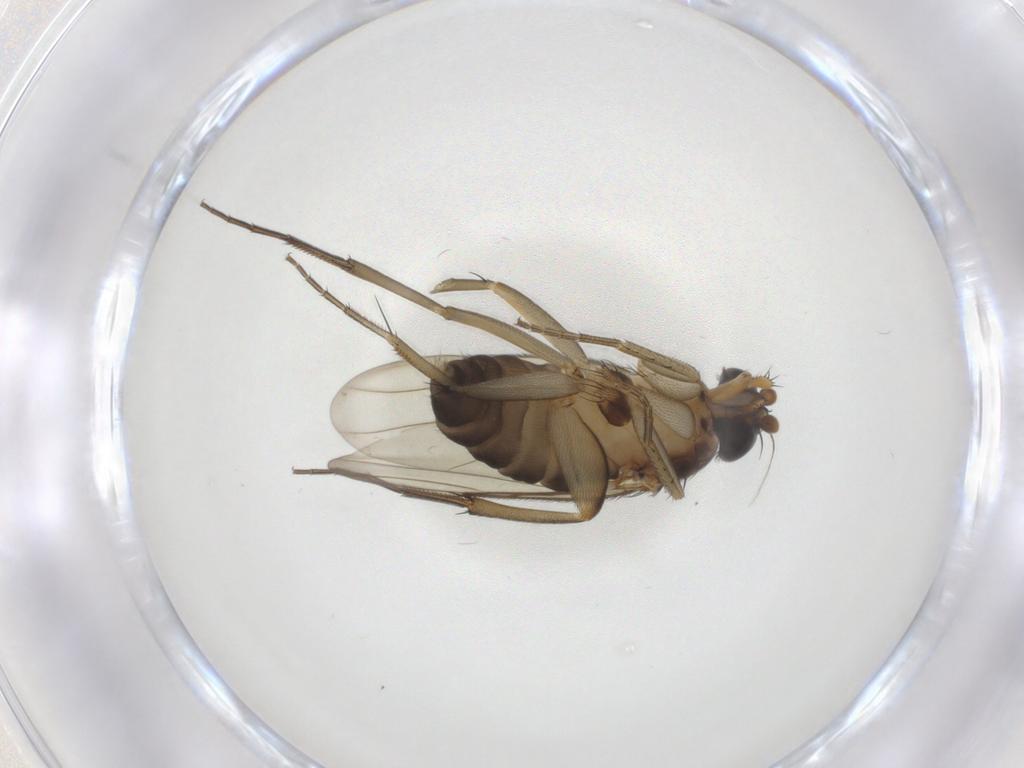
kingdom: Animalia
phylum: Arthropoda
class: Insecta
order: Diptera
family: Phoridae
